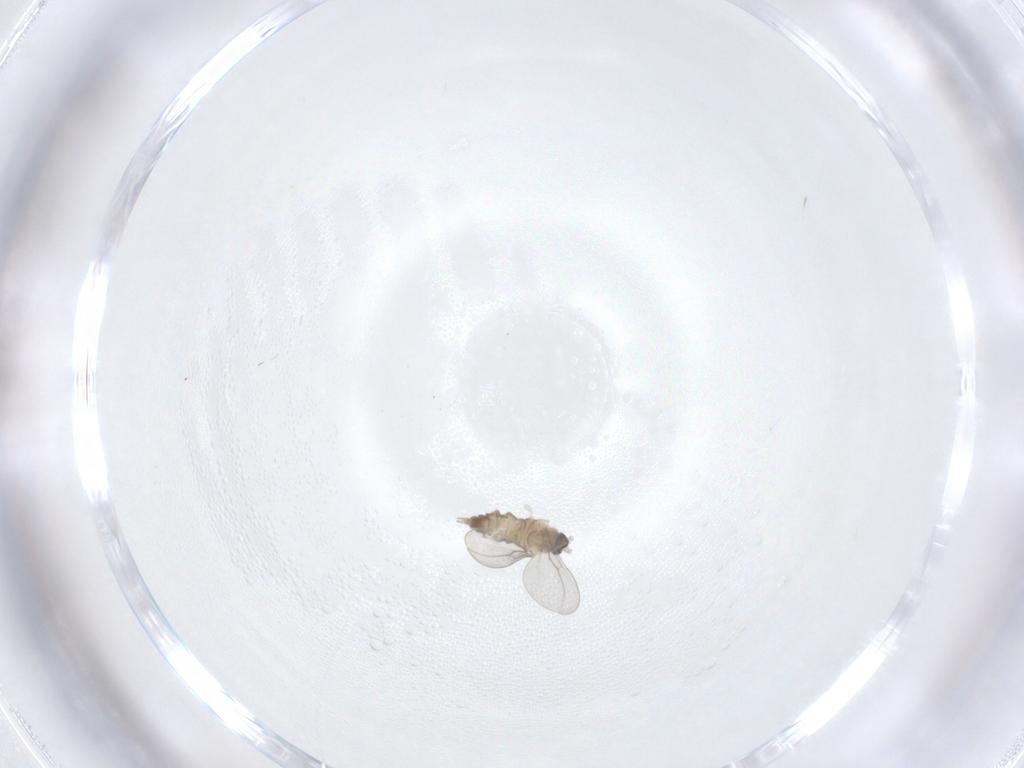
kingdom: Animalia
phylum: Arthropoda
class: Insecta
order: Diptera
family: Cecidomyiidae
